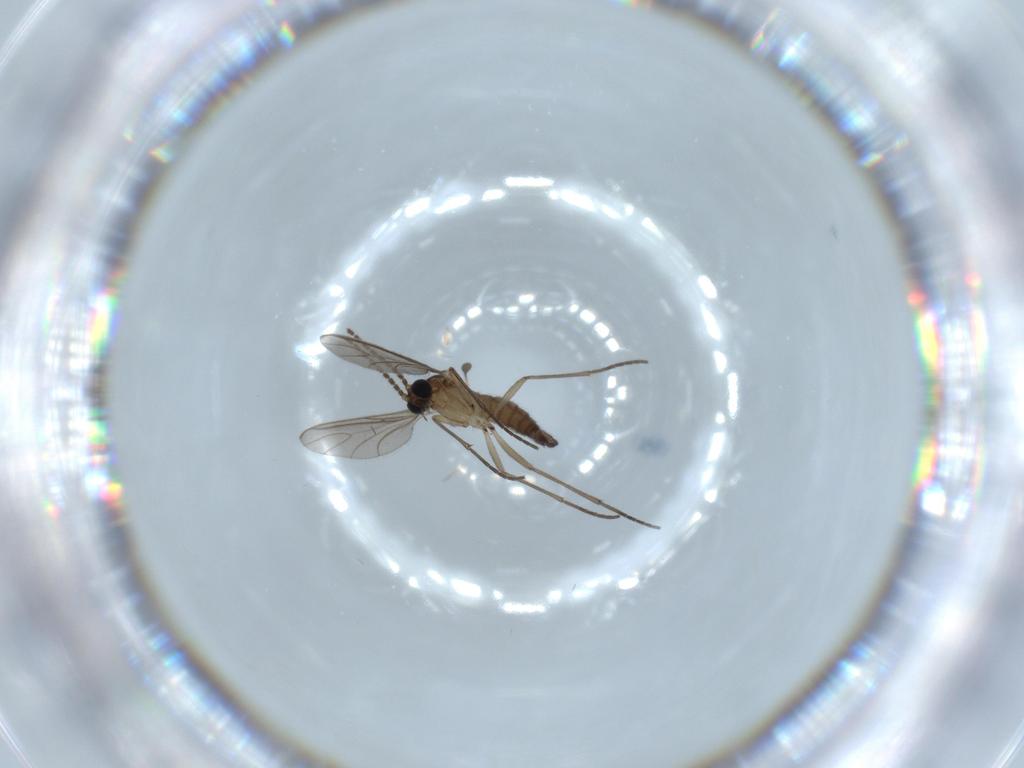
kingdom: Animalia
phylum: Arthropoda
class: Insecta
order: Diptera
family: Sciaridae
